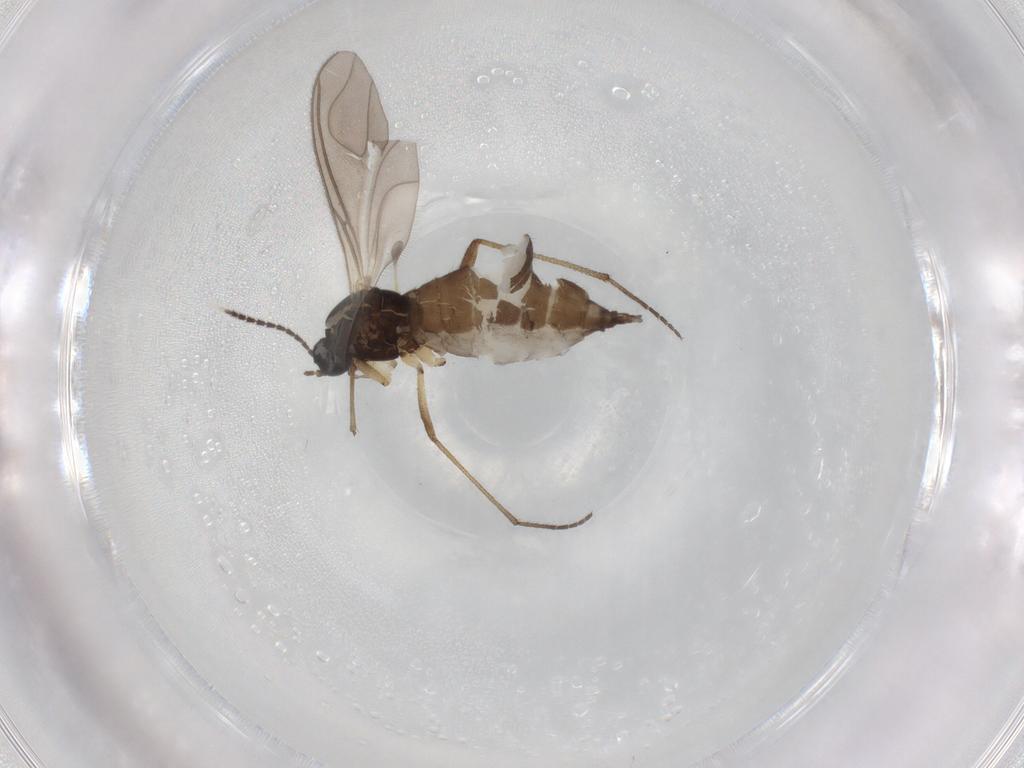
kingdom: Animalia
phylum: Arthropoda
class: Insecta
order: Diptera
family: Sciaridae
